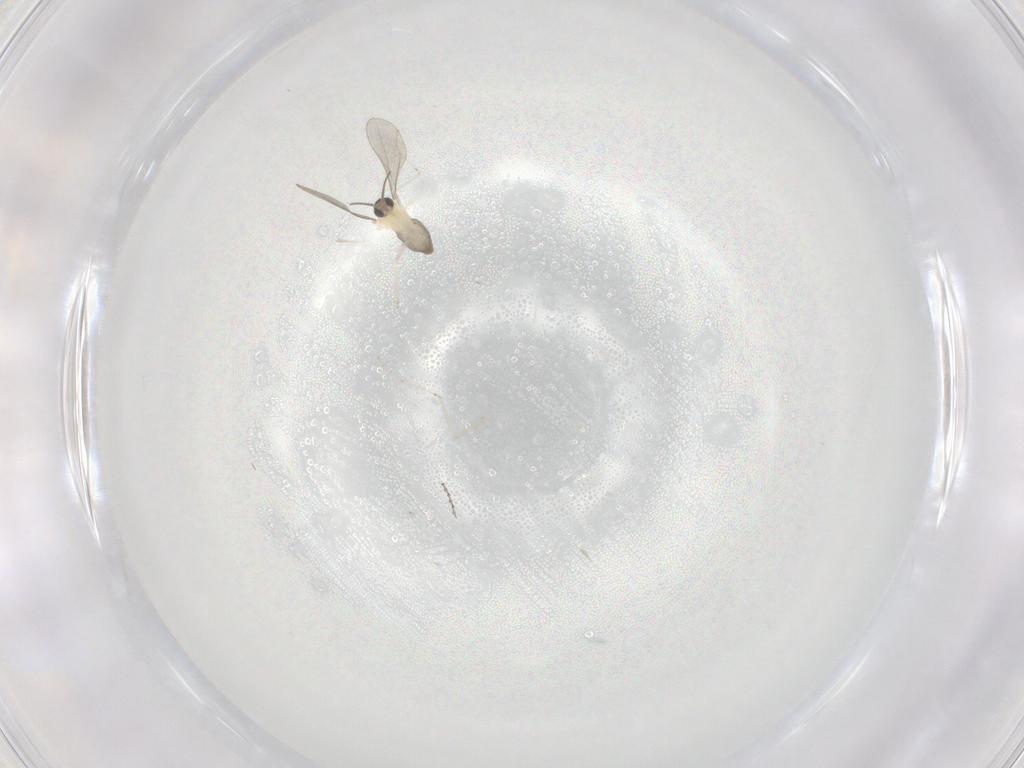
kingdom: Animalia
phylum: Arthropoda
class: Insecta
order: Diptera
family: Cecidomyiidae
